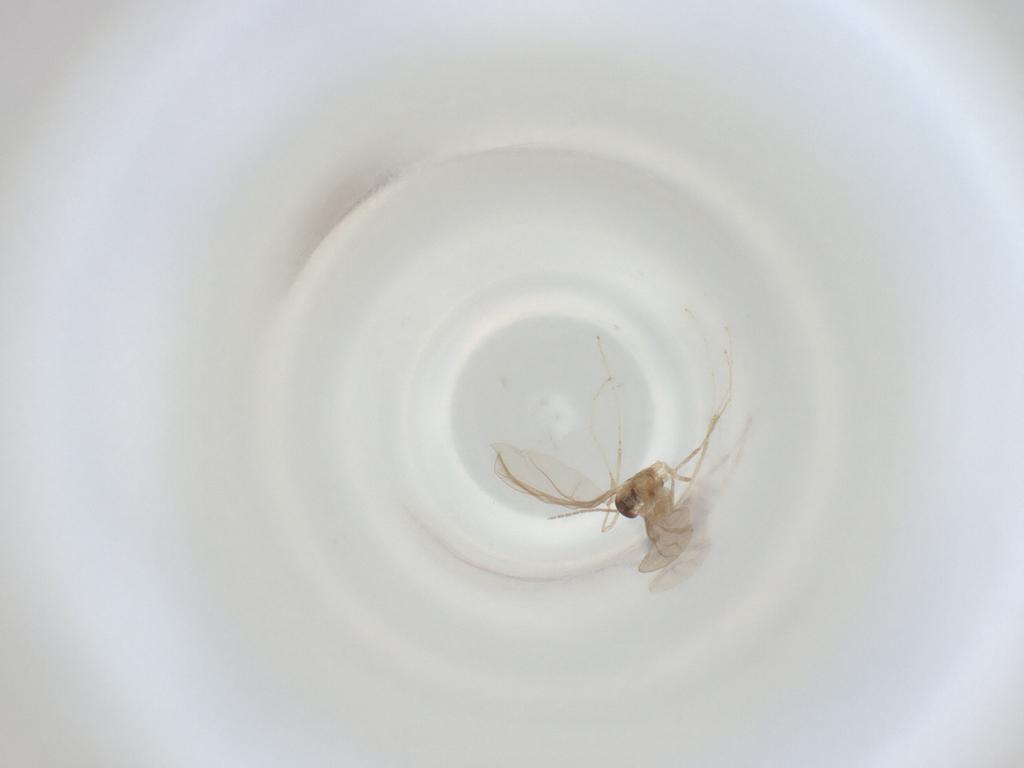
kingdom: Animalia
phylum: Arthropoda
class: Insecta
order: Diptera
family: Cecidomyiidae
